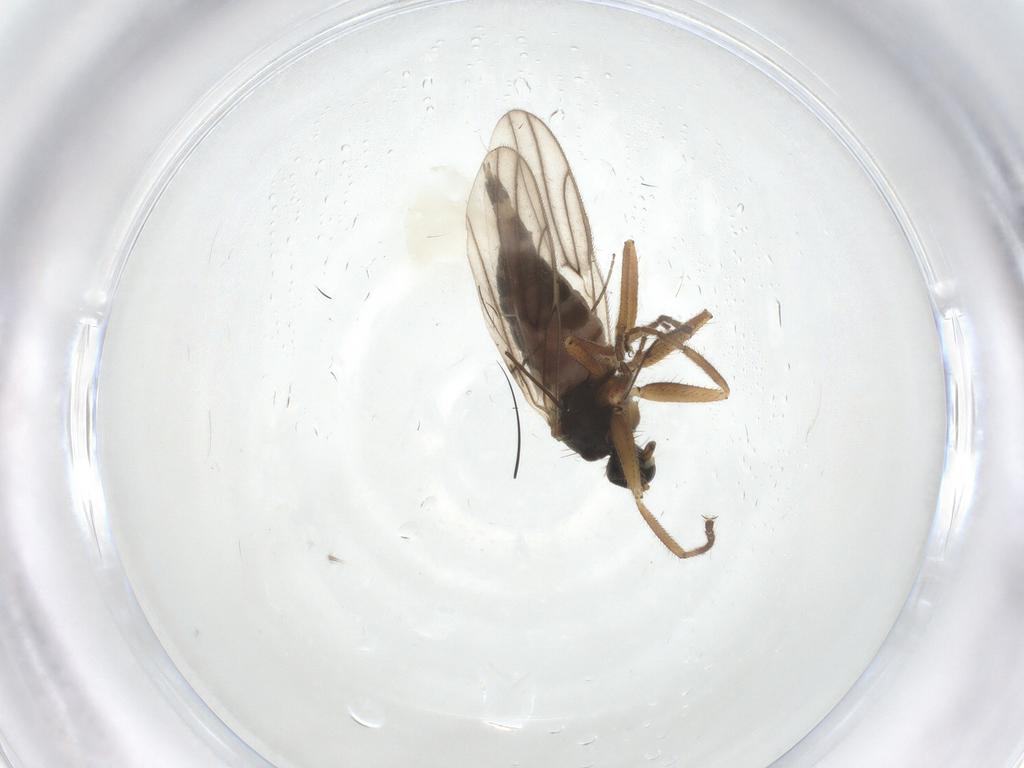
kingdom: Animalia
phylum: Arthropoda
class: Insecta
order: Diptera
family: Hybotidae
